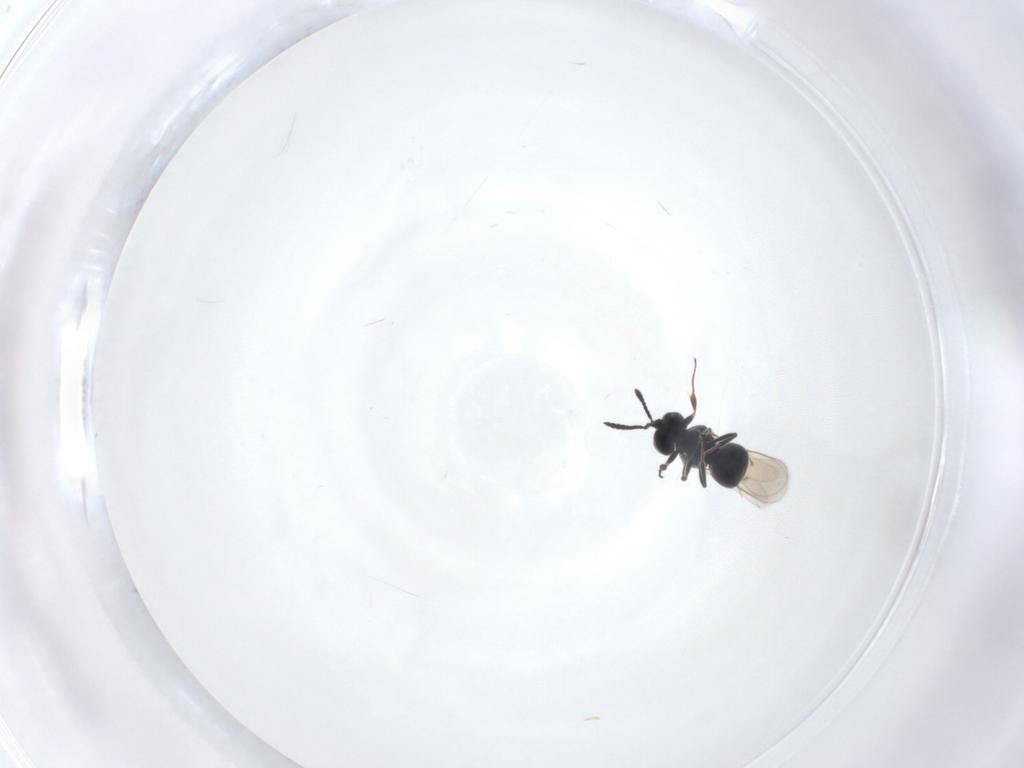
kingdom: Animalia
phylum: Arthropoda
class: Insecta
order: Hymenoptera
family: Scelionidae
